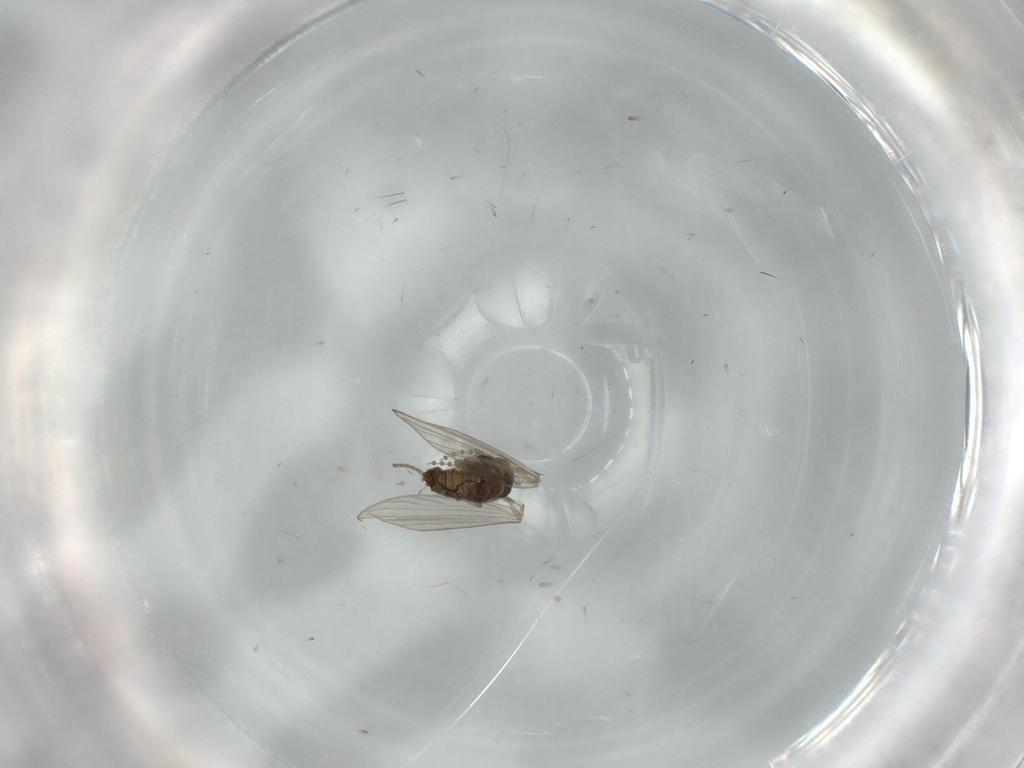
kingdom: Animalia
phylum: Arthropoda
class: Insecta
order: Diptera
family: Psychodidae
